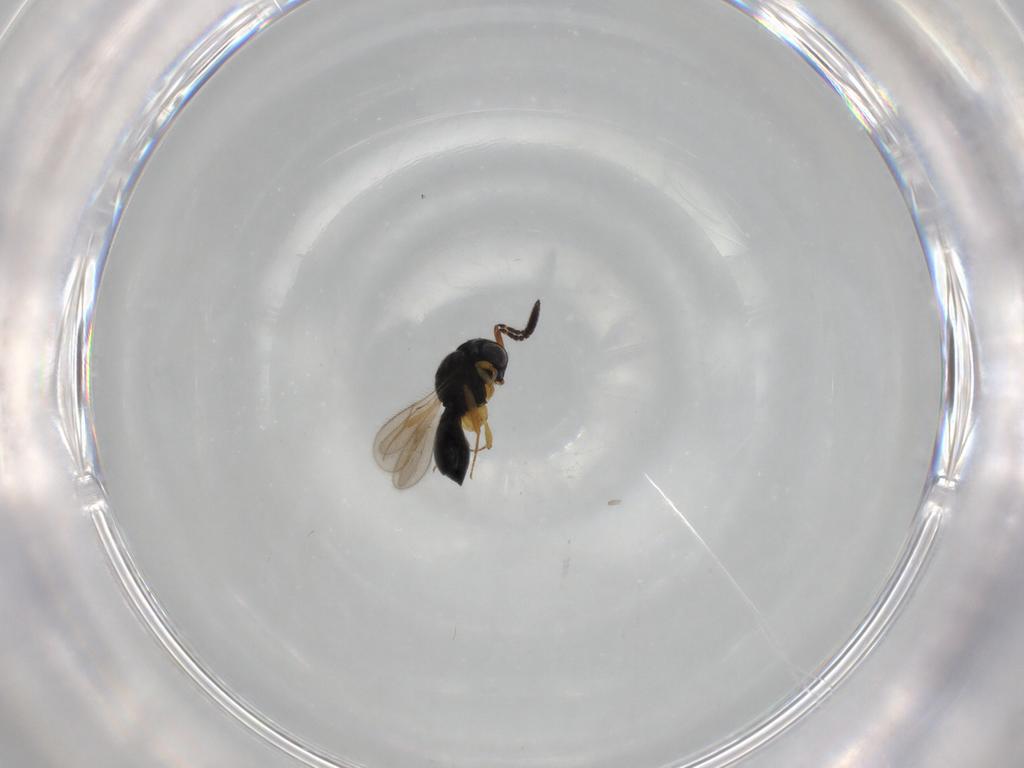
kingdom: Animalia
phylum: Arthropoda
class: Insecta
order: Hymenoptera
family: Scelionidae
